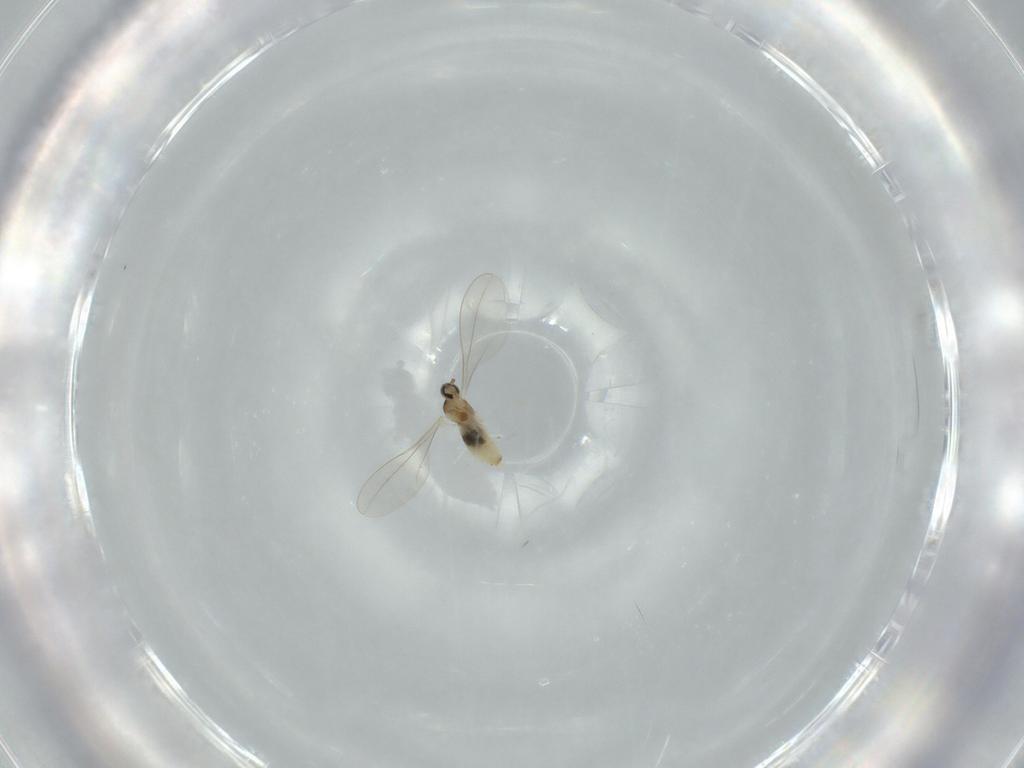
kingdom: Animalia
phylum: Arthropoda
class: Insecta
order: Diptera
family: Cecidomyiidae
